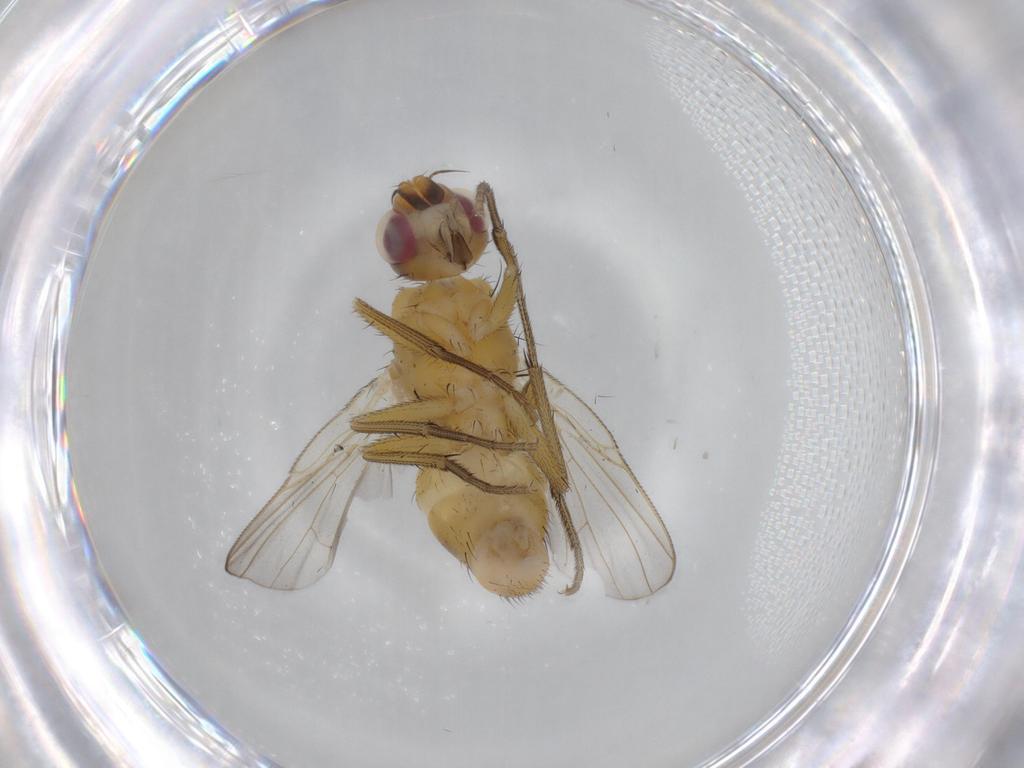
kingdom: Animalia
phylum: Arthropoda
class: Insecta
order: Diptera
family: Muscidae
